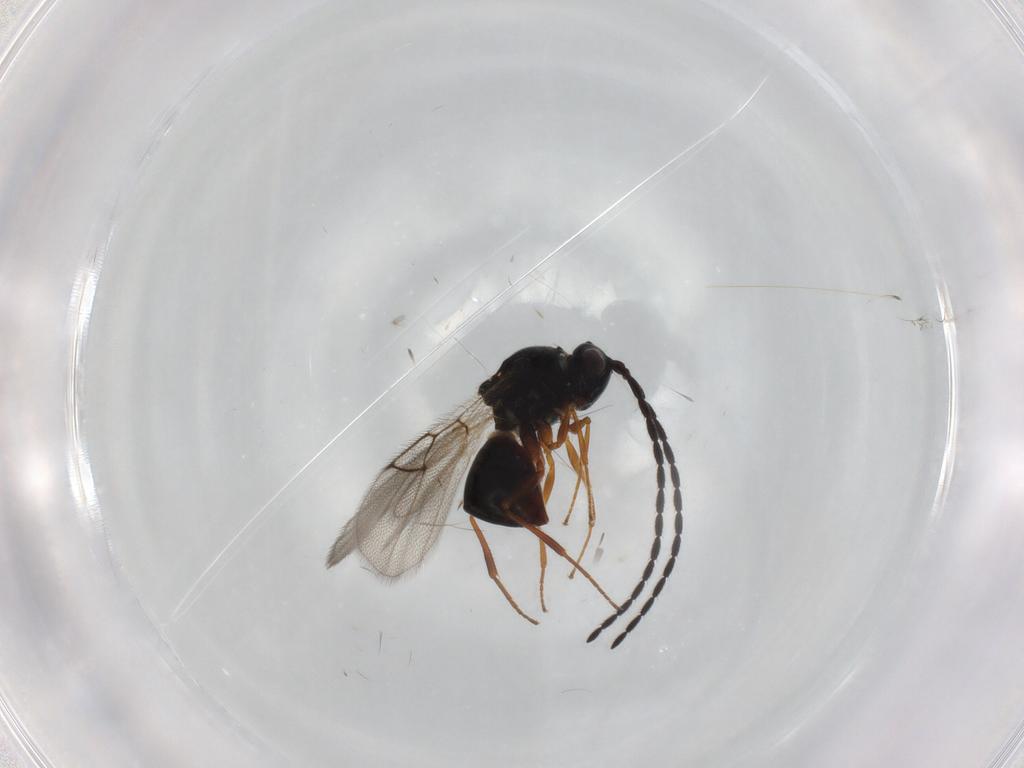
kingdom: Animalia
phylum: Arthropoda
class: Insecta
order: Hymenoptera
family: Figitidae
